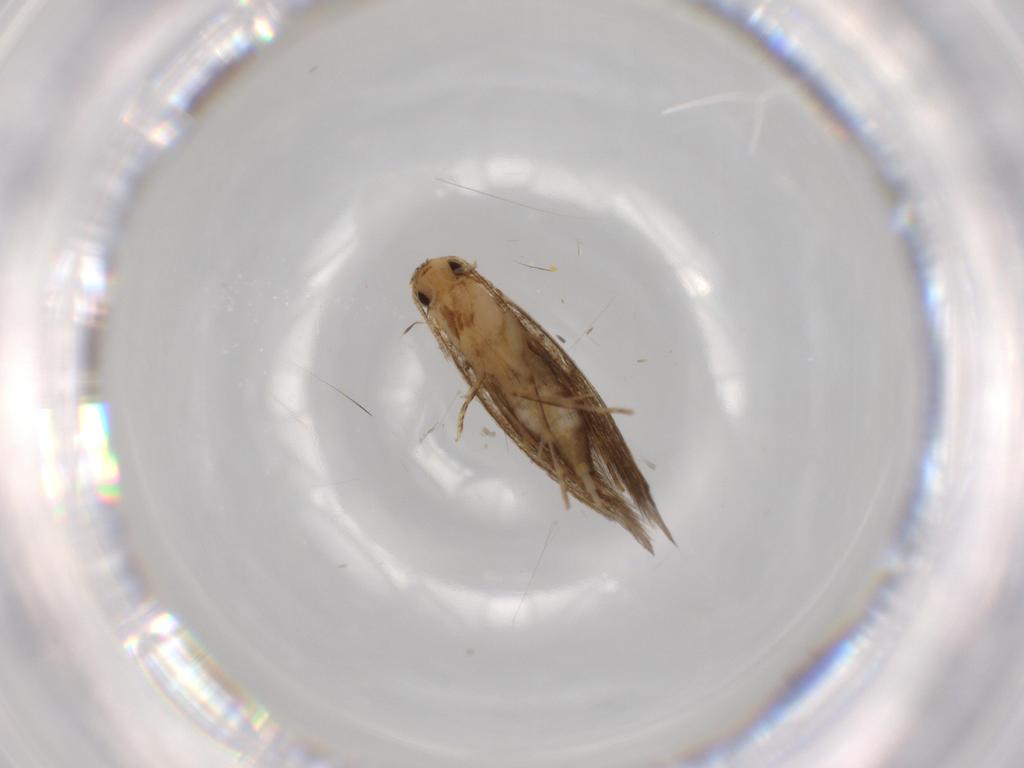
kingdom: Animalia
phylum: Arthropoda
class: Insecta
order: Lepidoptera
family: Tineidae
